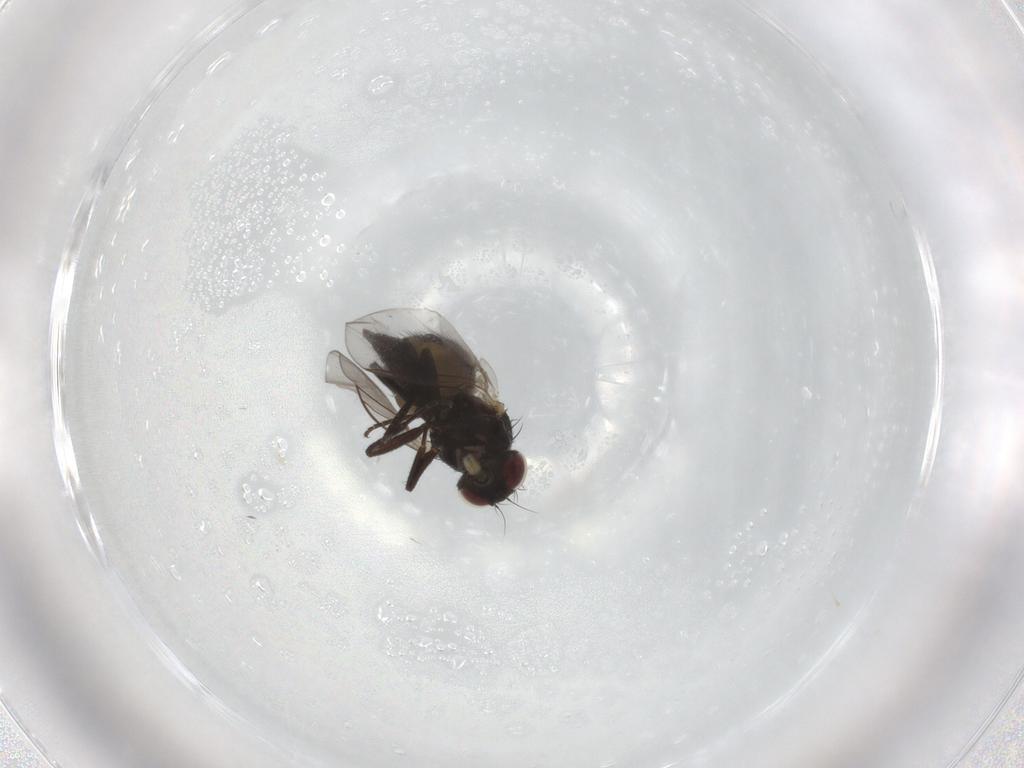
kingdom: Animalia
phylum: Arthropoda
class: Insecta
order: Diptera
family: Cecidomyiidae
